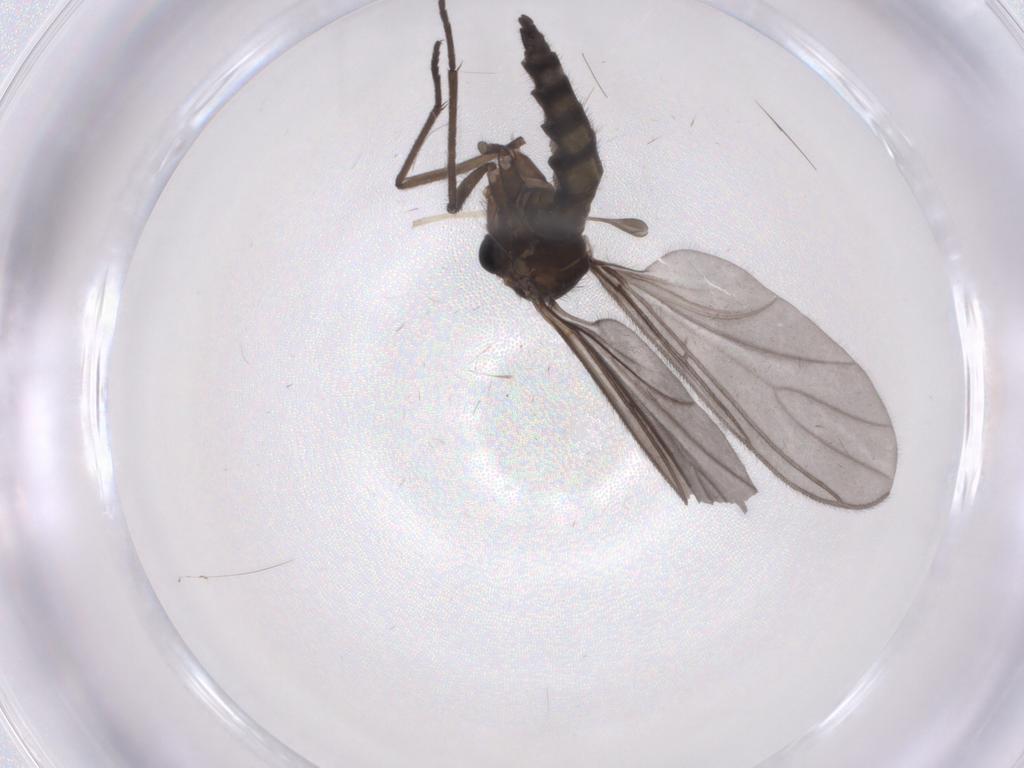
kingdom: Animalia
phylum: Arthropoda
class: Insecta
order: Diptera
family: Sciaridae
